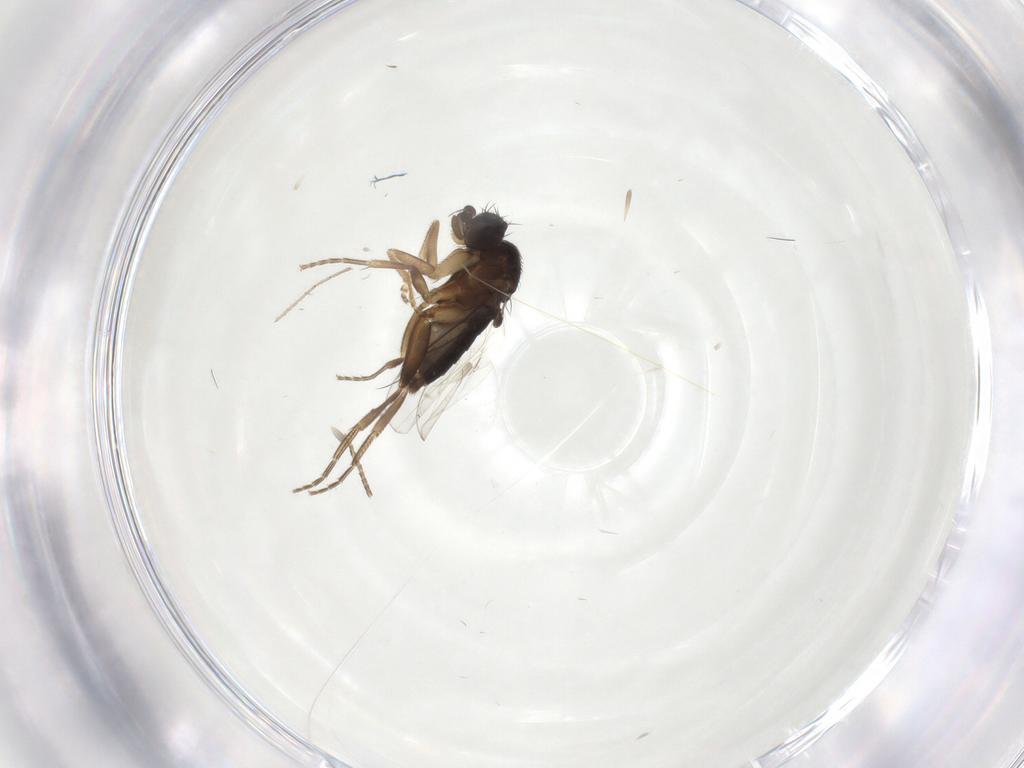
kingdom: Animalia
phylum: Arthropoda
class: Insecta
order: Diptera
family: Phoridae
